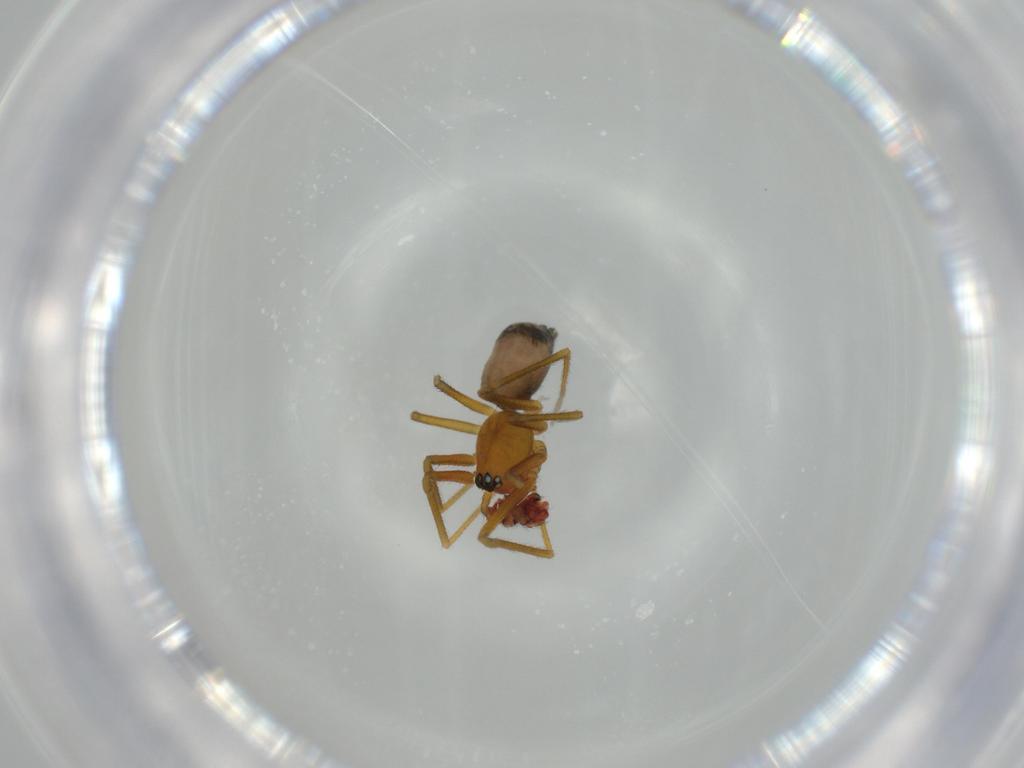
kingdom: Animalia
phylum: Arthropoda
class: Arachnida
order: Araneae
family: Linyphiidae
